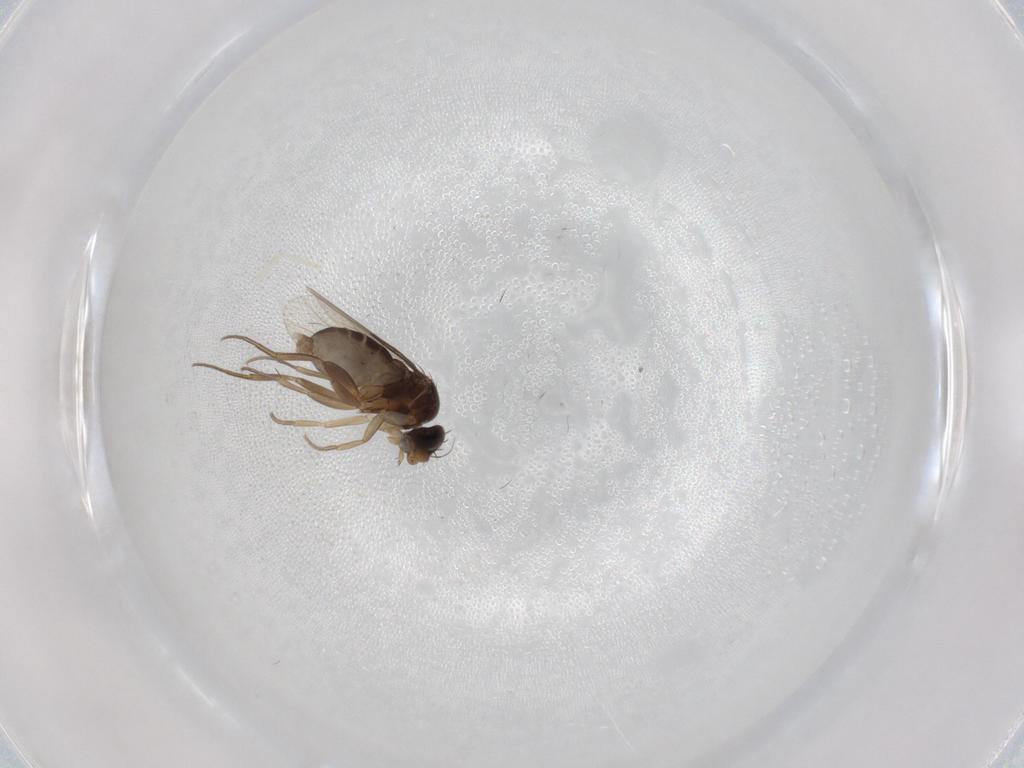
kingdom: Animalia
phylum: Arthropoda
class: Insecta
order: Diptera
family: Phoridae
